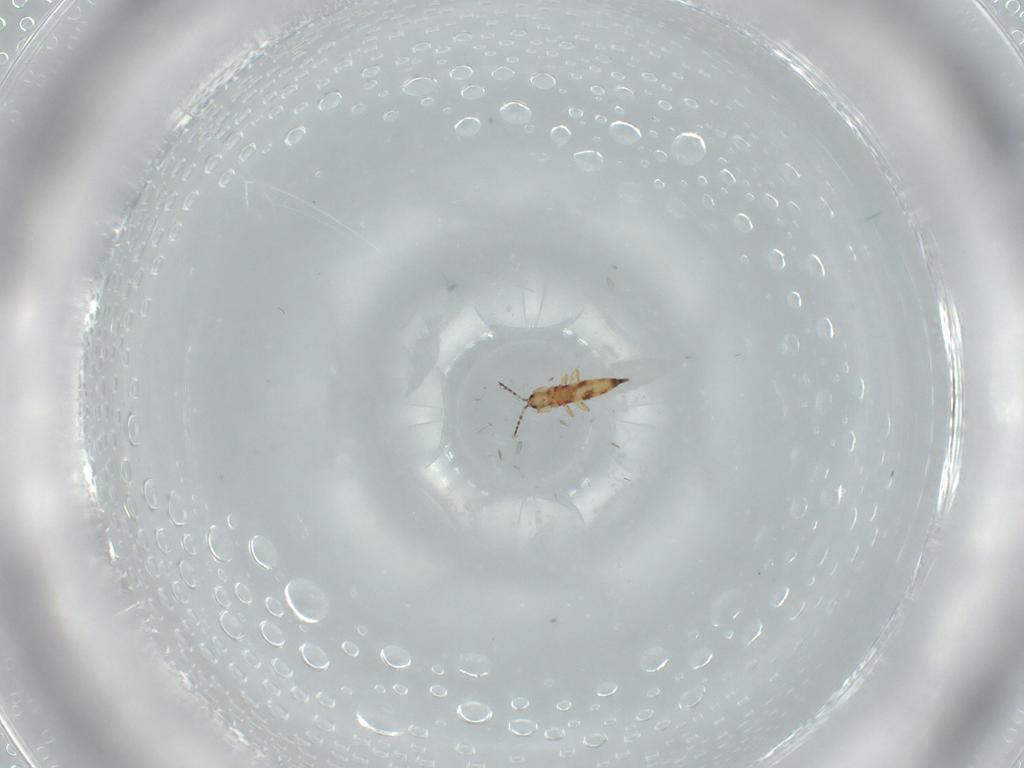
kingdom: Animalia
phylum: Arthropoda
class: Insecta
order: Thysanoptera
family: Phlaeothripidae
